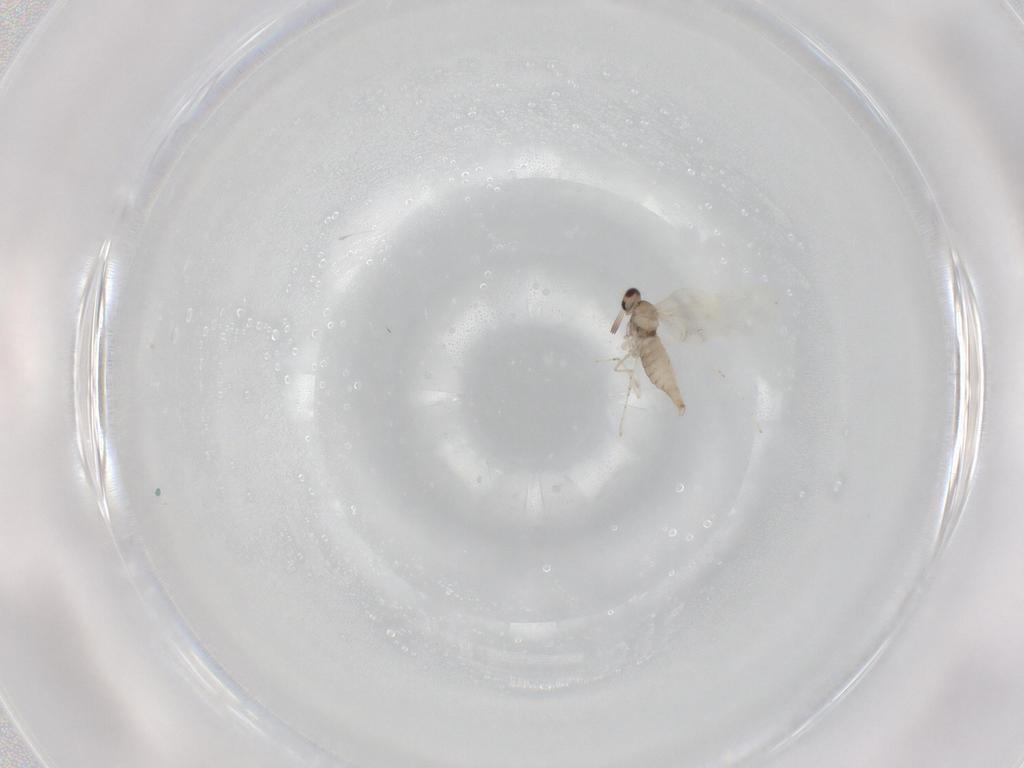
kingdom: Animalia
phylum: Arthropoda
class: Insecta
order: Diptera
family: Cecidomyiidae
